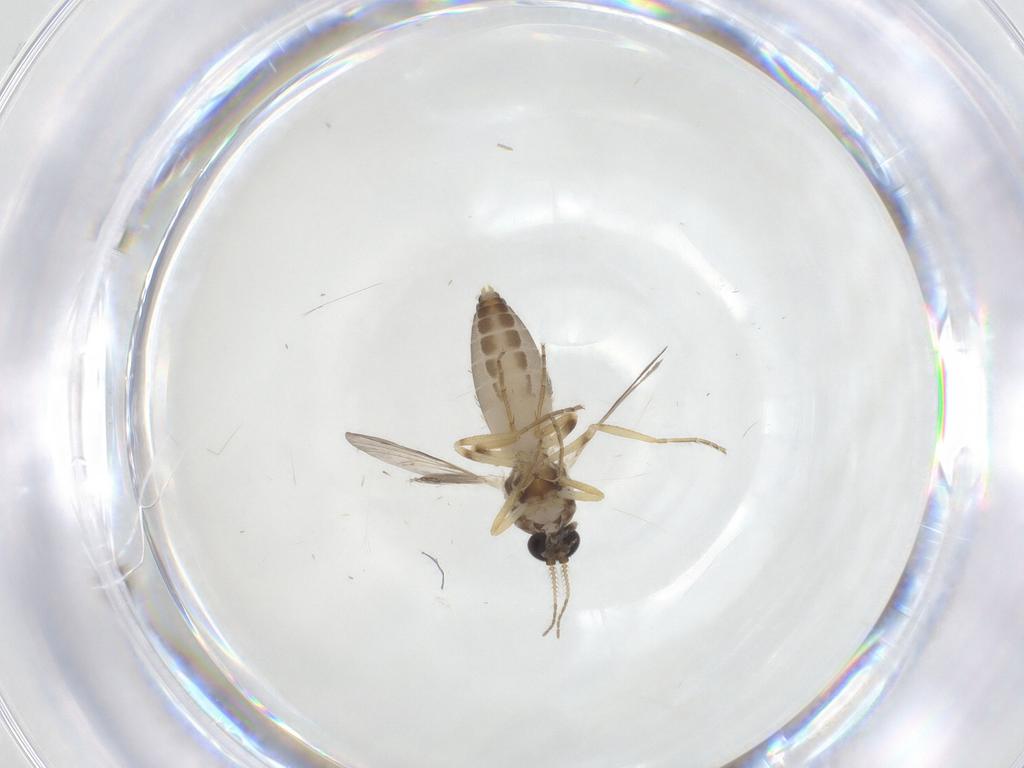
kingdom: Animalia
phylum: Arthropoda
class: Insecta
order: Diptera
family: Ceratopogonidae
